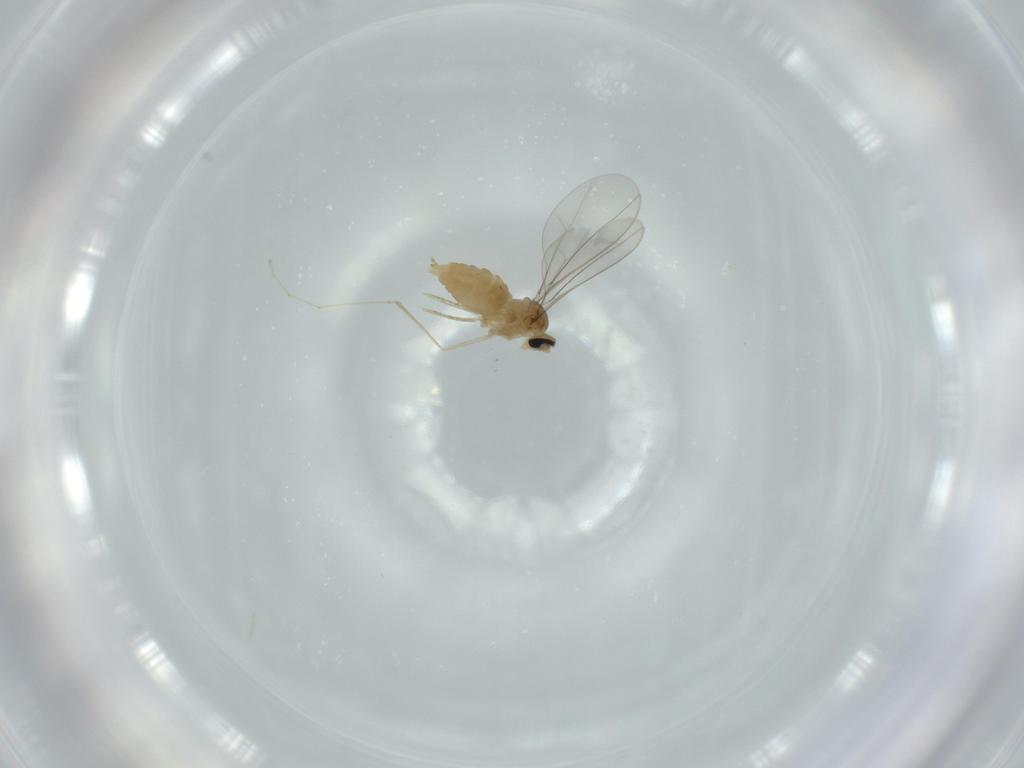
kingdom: Animalia
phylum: Arthropoda
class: Insecta
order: Diptera
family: Cecidomyiidae
